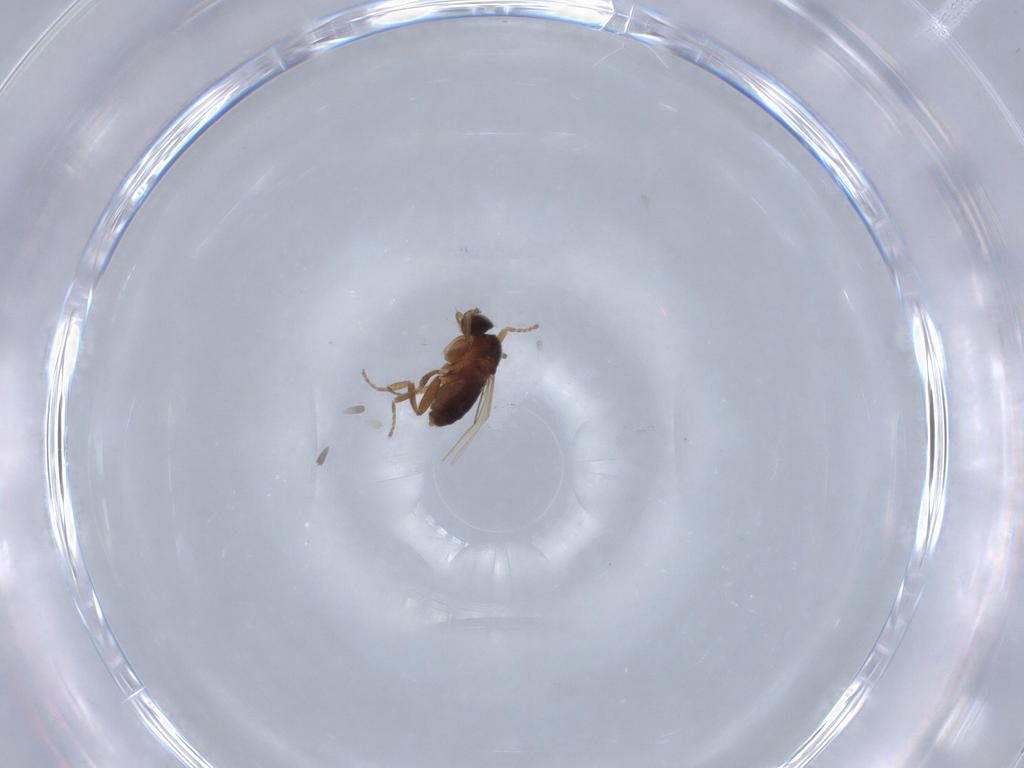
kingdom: Animalia
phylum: Arthropoda
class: Insecta
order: Diptera
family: Phoridae
